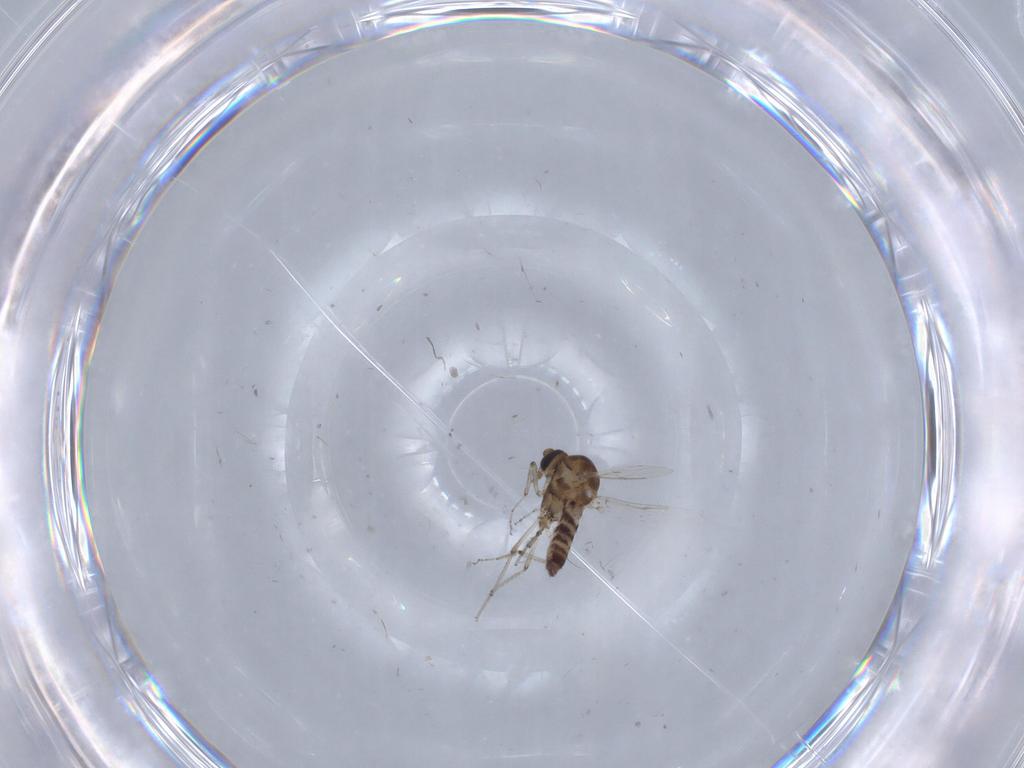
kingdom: Animalia
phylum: Arthropoda
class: Insecta
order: Diptera
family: Ceratopogonidae
